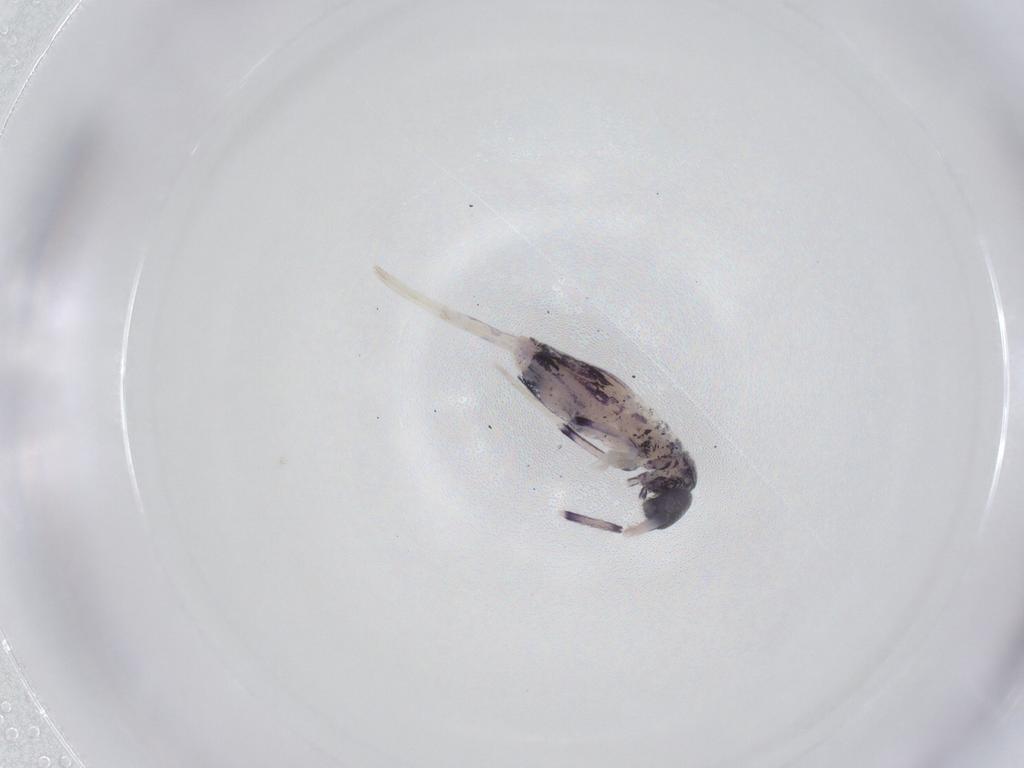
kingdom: Animalia
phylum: Arthropoda
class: Collembola
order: Entomobryomorpha
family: Entomobryidae
